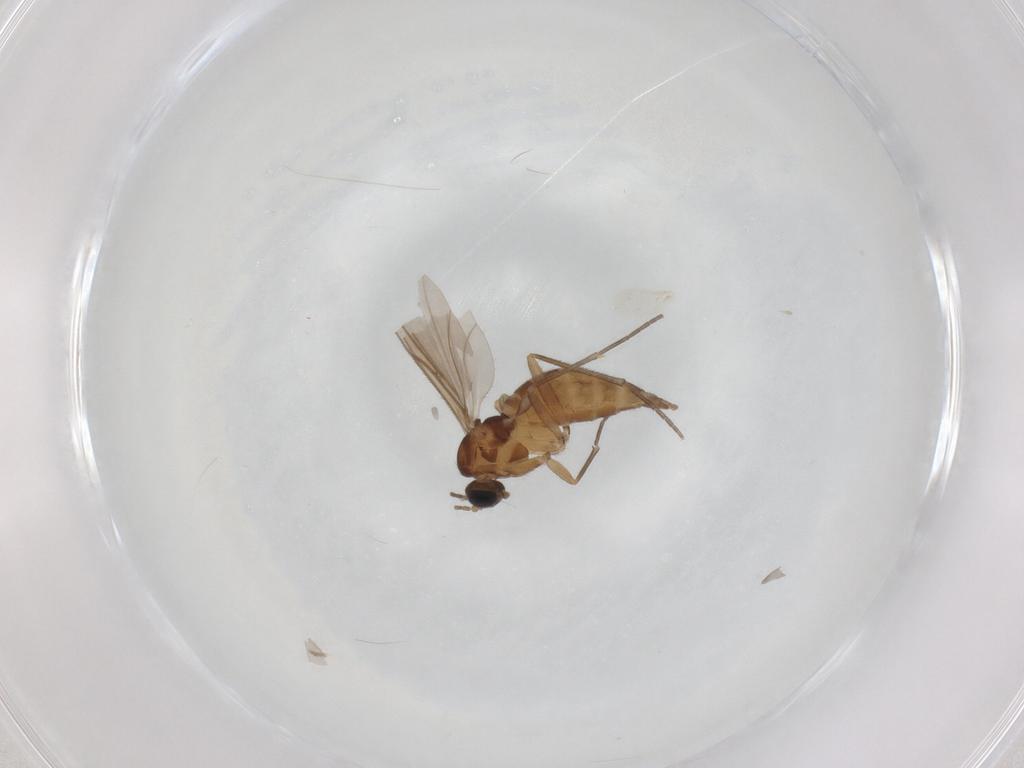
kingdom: Animalia
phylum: Arthropoda
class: Insecta
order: Diptera
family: Sciaridae
